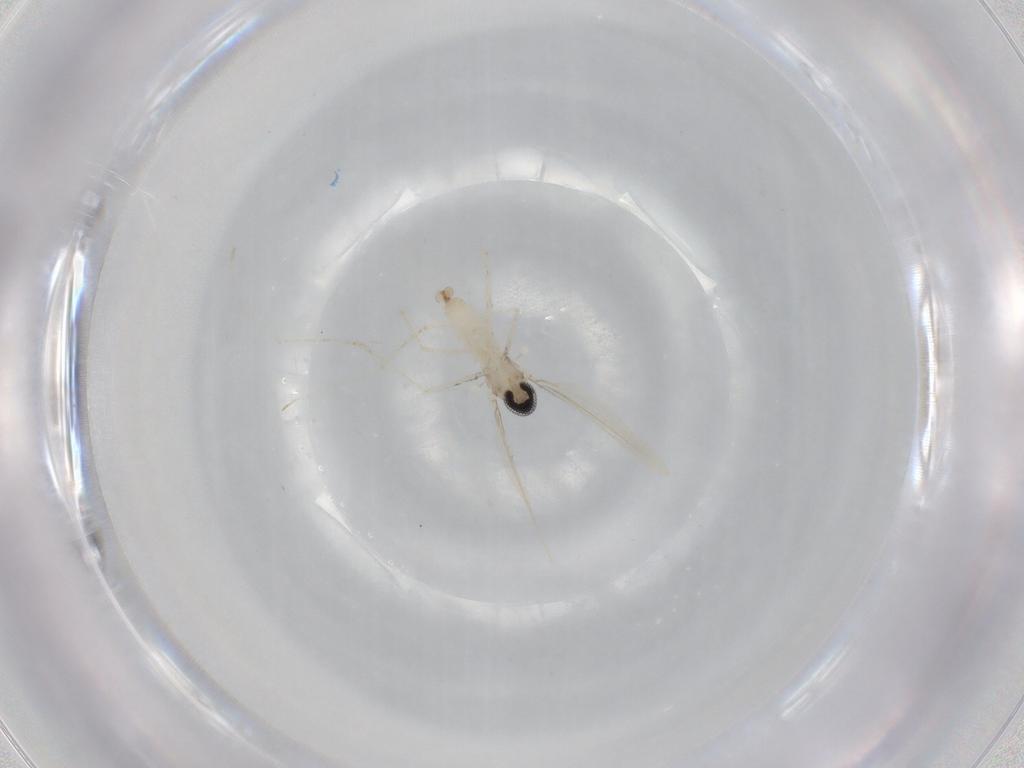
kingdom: Animalia
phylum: Arthropoda
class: Insecta
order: Diptera
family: Cecidomyiidae
